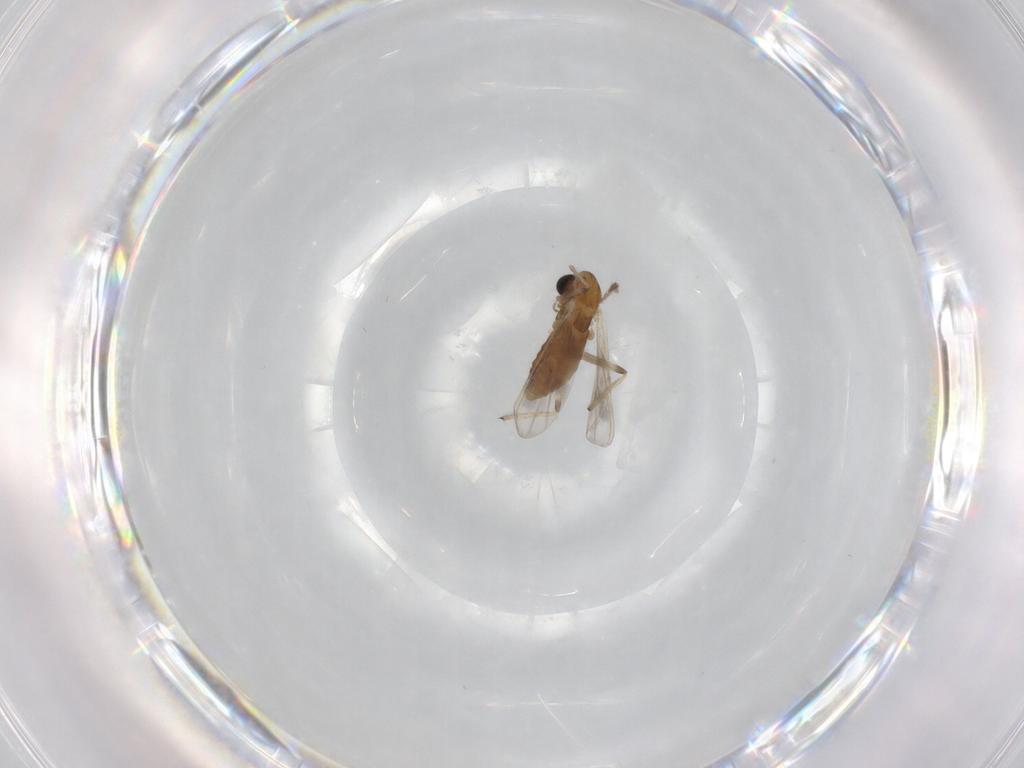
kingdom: Animalia
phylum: Arthropoda
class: Insecta
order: Diptera
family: Chironomidae
